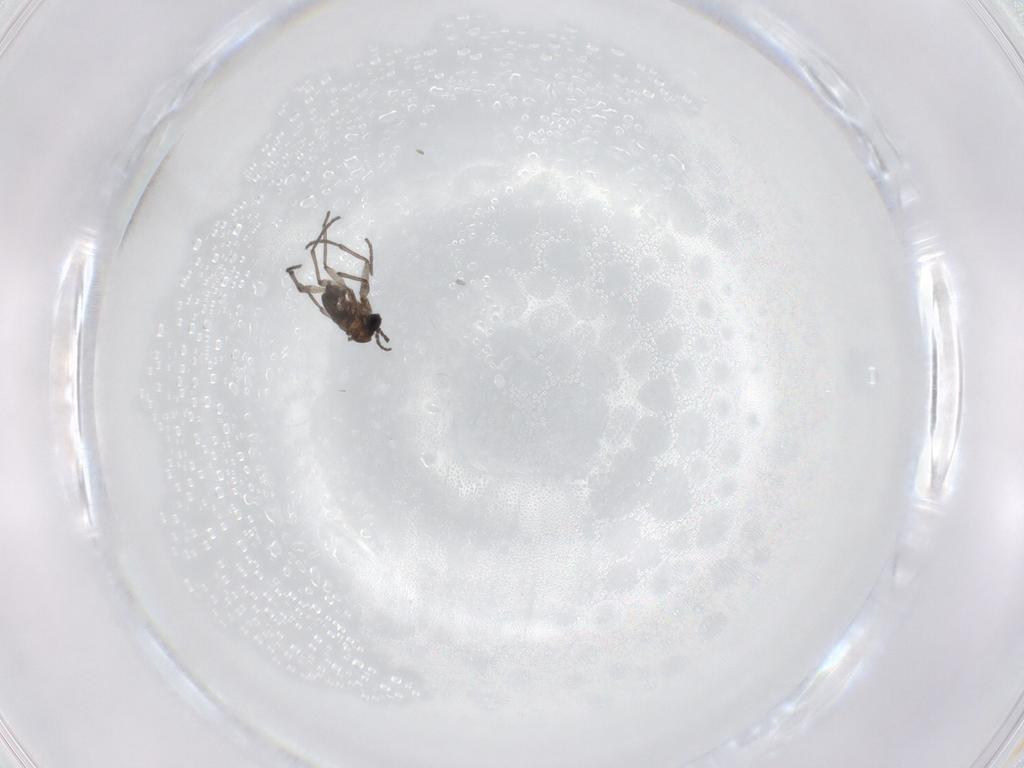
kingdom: Animalia
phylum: Arthropoda
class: Insecta
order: Diptera
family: Sciaridae
